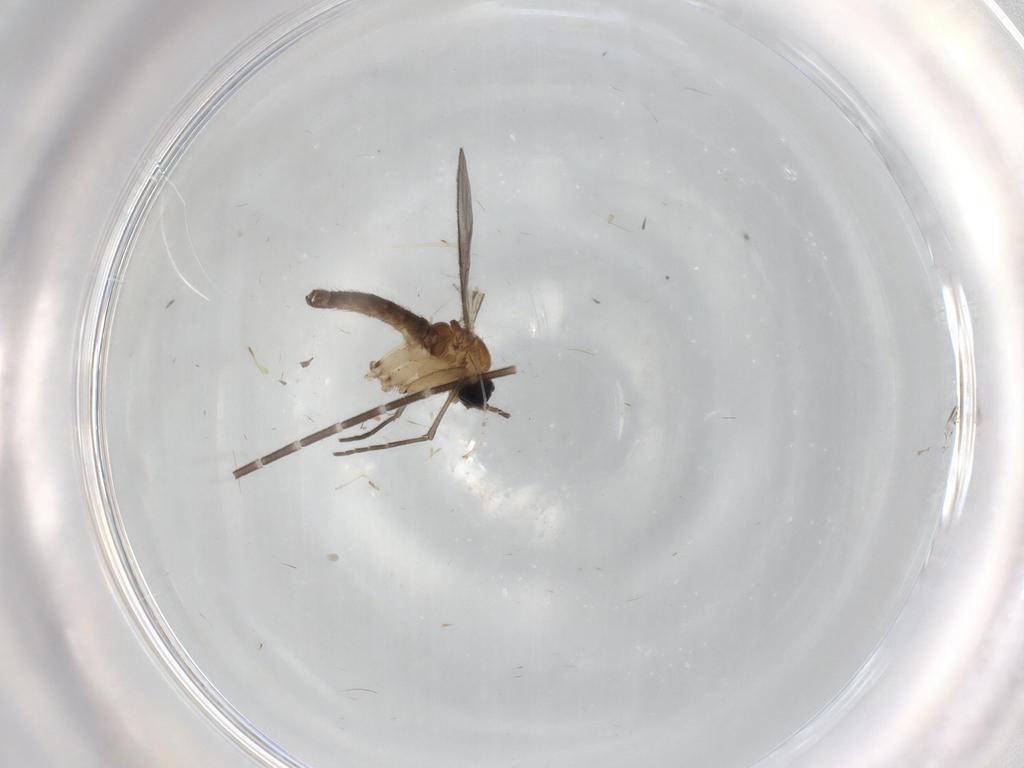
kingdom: Animalia
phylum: Arthropoda
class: Insecta
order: Diptera
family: Sciaridae
